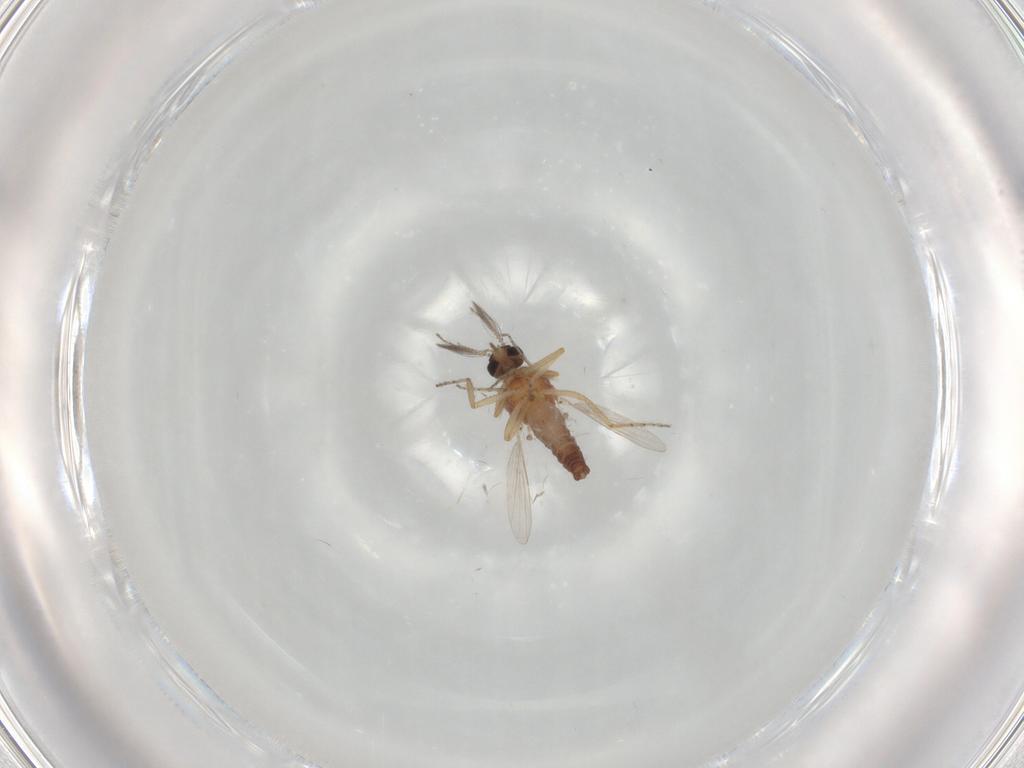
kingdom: Animalia
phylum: Arthropoda
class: Insecta
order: Diptera
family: Ceratopogonidae
